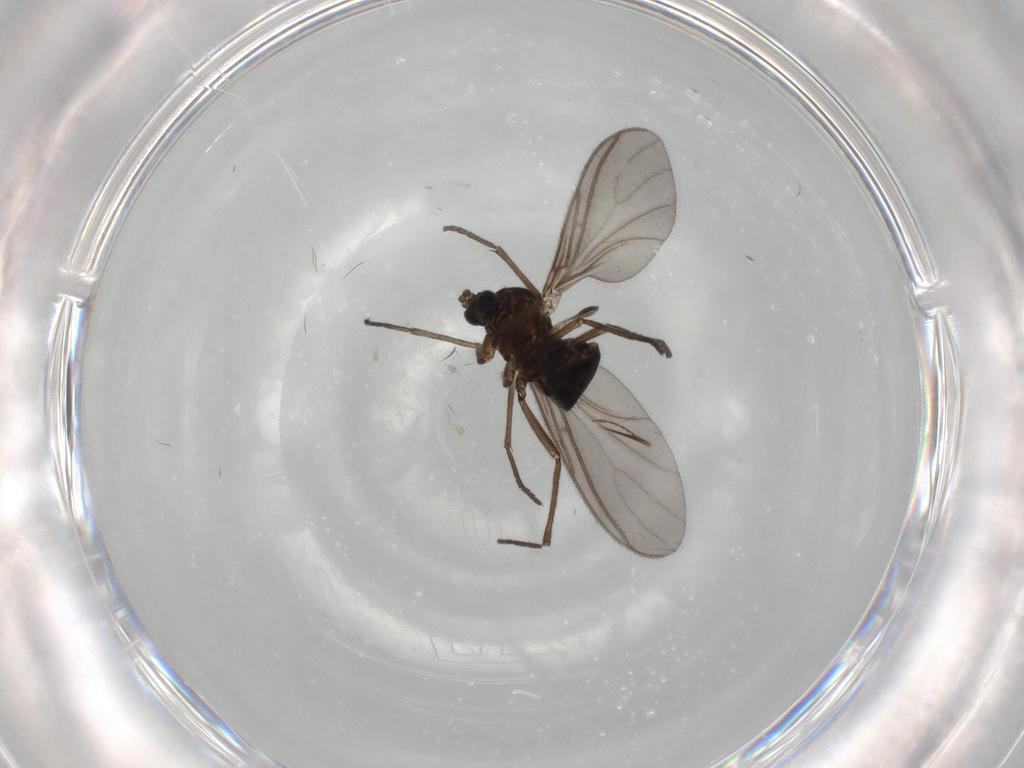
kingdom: Animalia
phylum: Arthropoda
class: Insecta
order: Diptera
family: Sciaridae
